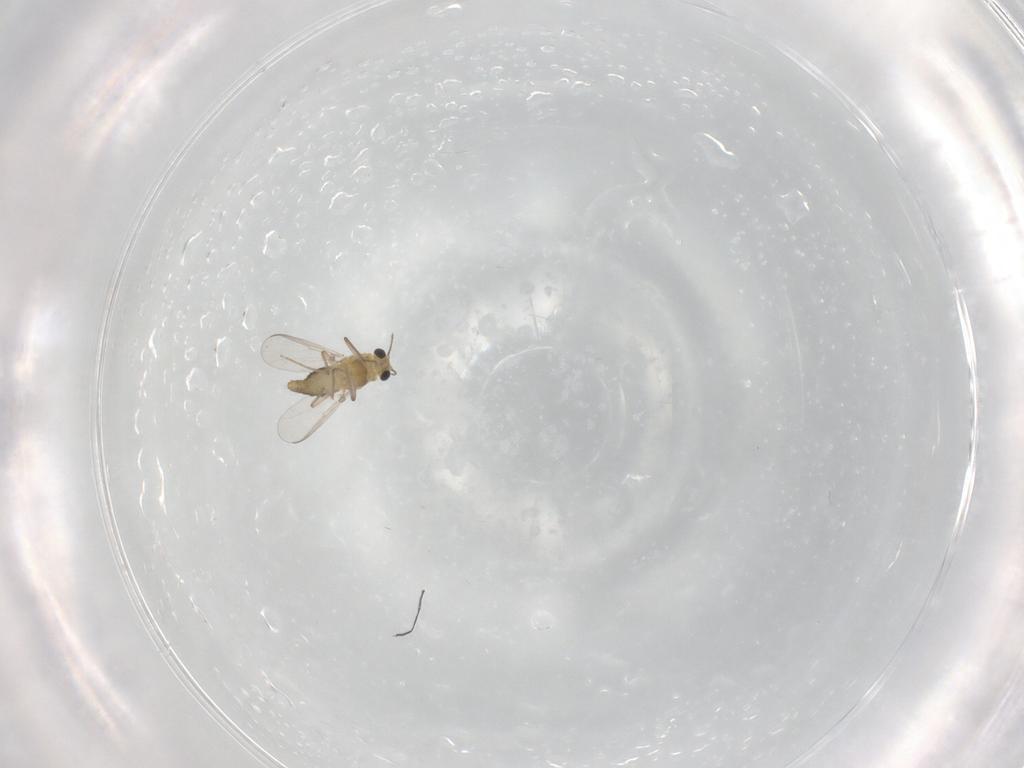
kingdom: Animalia
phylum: Arthropoda
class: Insecta
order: Diptera
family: Chironomidae
